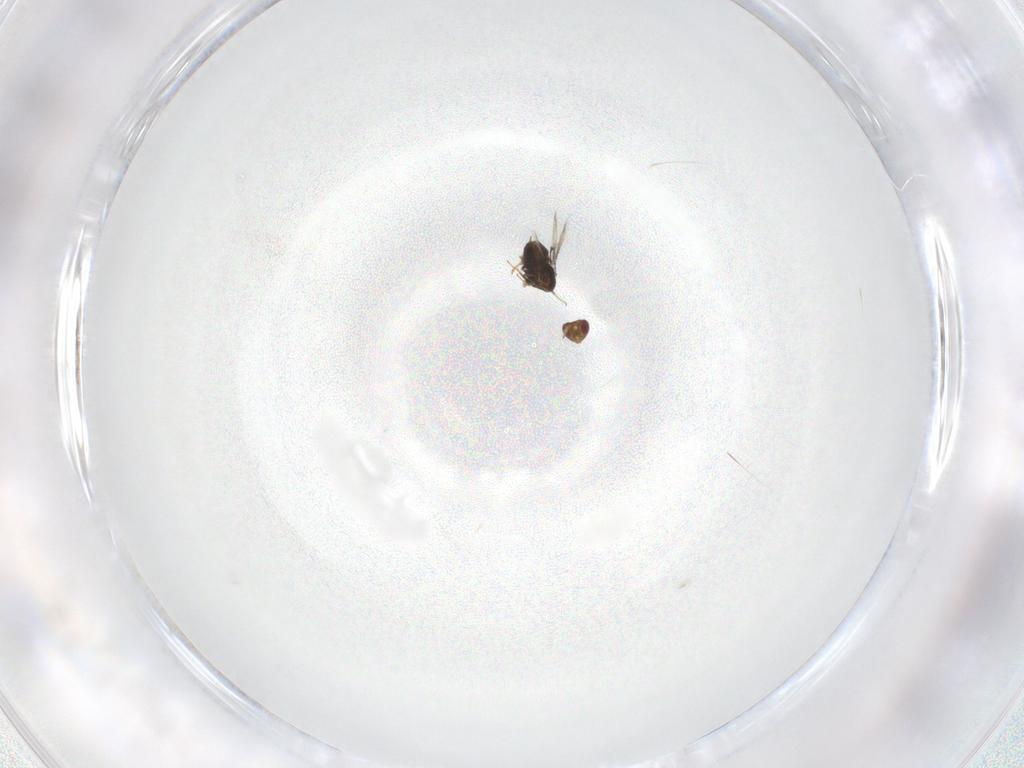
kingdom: Animalia
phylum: Arthropoda
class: Insecta
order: Hymenoptera
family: Trichogrammatidae
